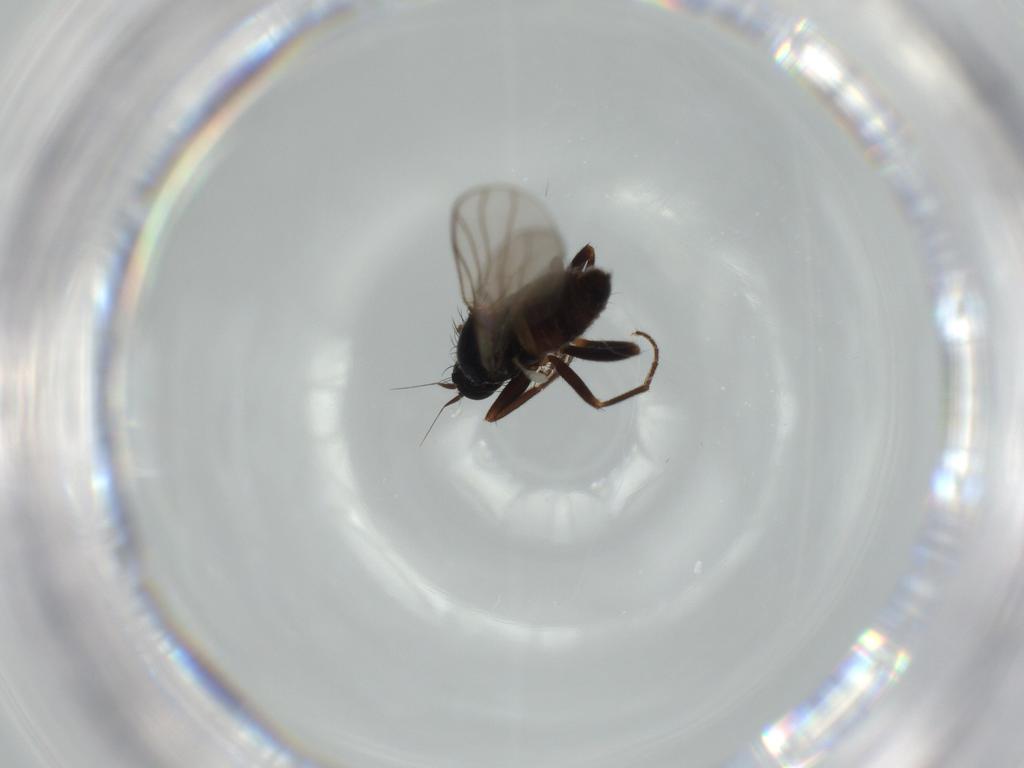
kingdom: Animalia
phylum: Arthropoda
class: Insecta
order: Diptera
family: Hybotidae
